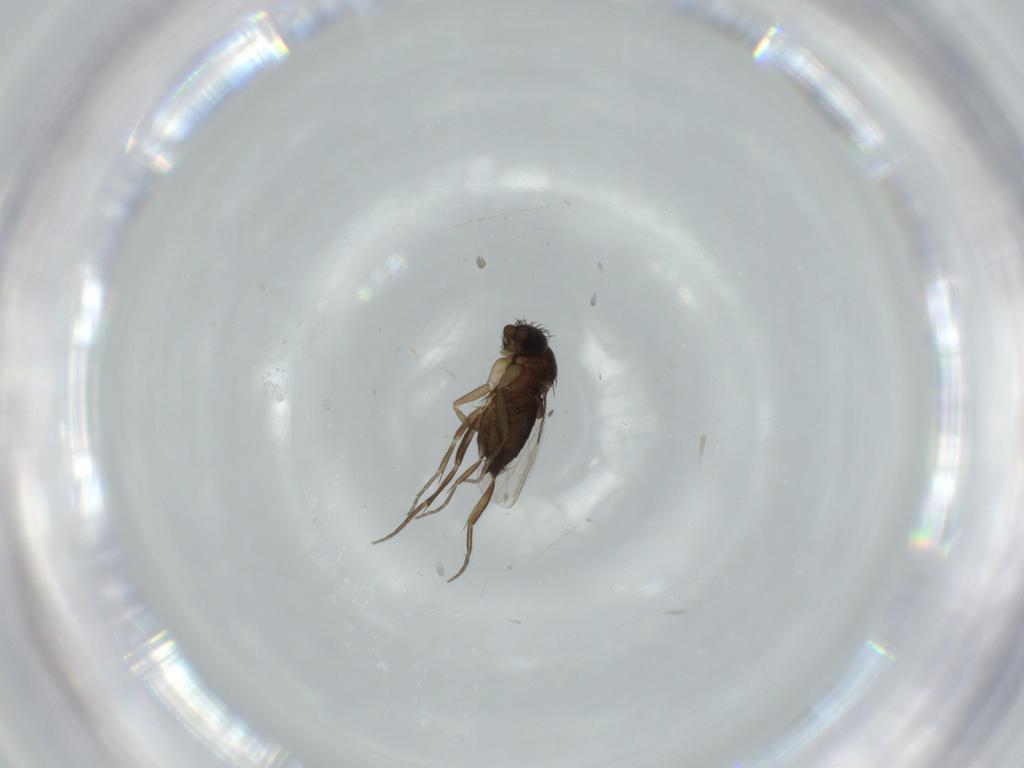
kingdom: Animalia
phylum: Arthropoda
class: Insecta
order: Diptera
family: Phoridae
